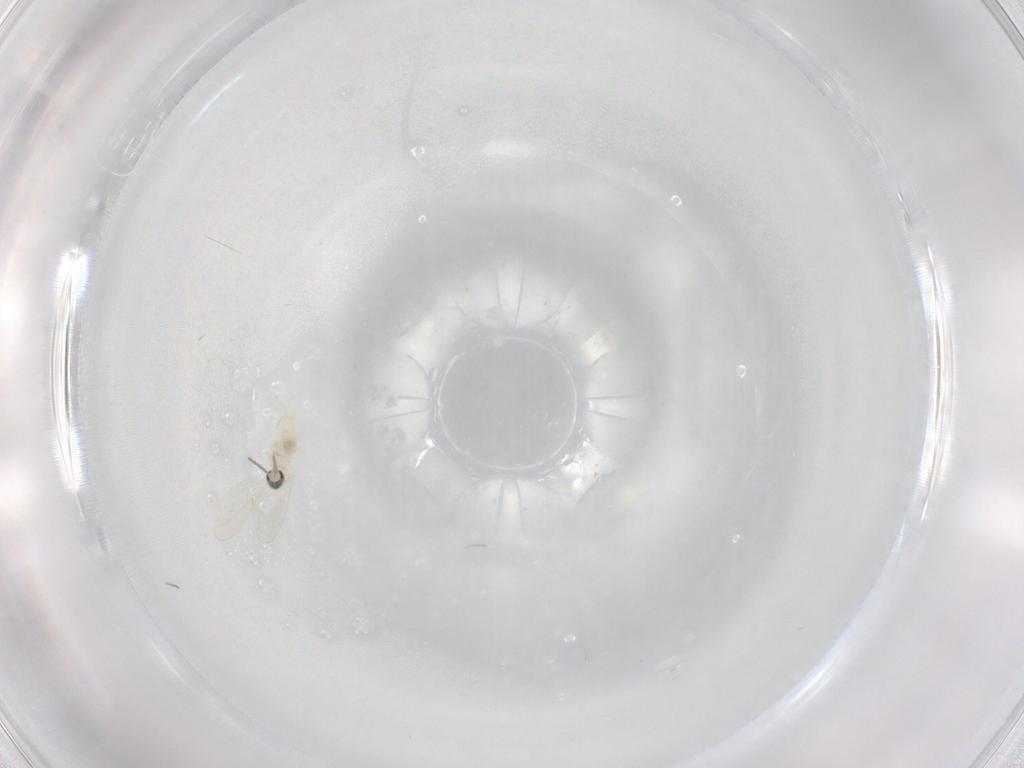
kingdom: Animalia
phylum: Arthropoda
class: Insecta
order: Diptera
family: Cecidomyiidae
